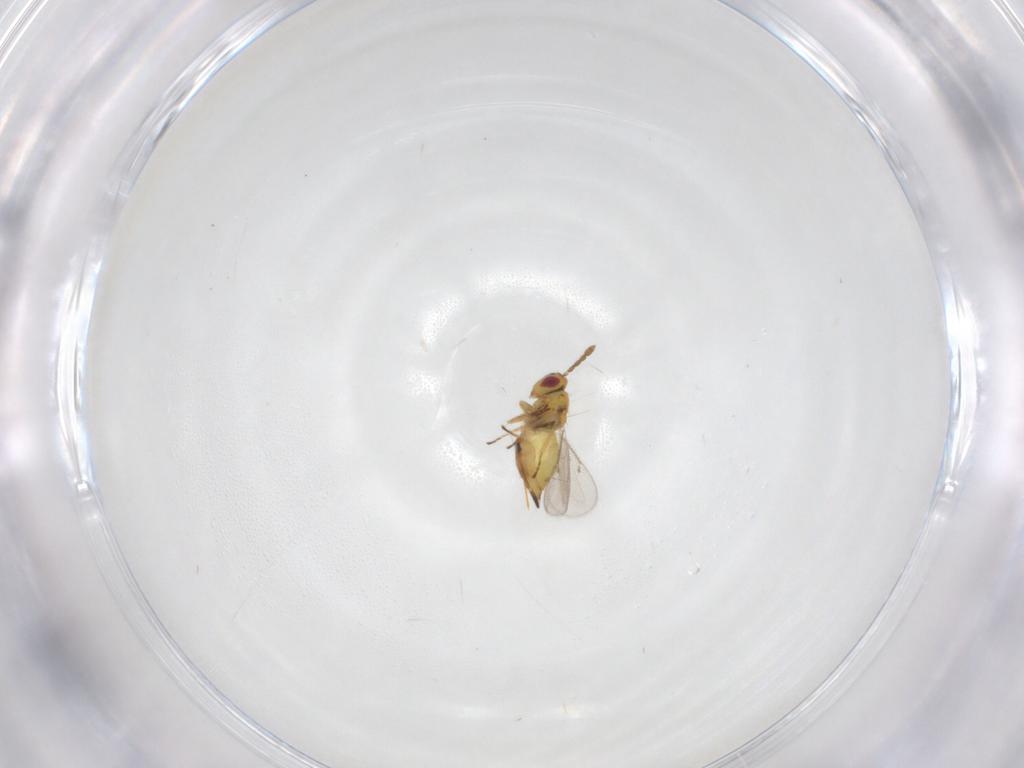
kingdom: Animalia
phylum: Arthropoda
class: Insecta
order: Hymenoptera
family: Eulophidae
